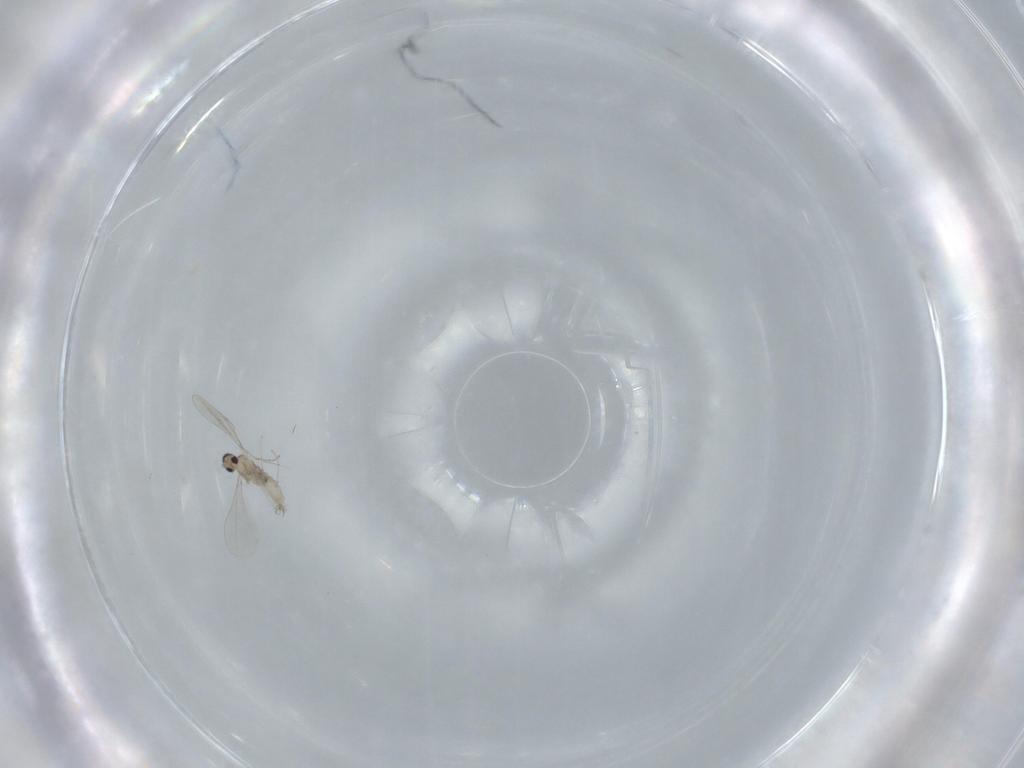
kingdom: Animalia
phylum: Arthropoda
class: Insecta
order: Diptera
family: Cecidomyiidae
